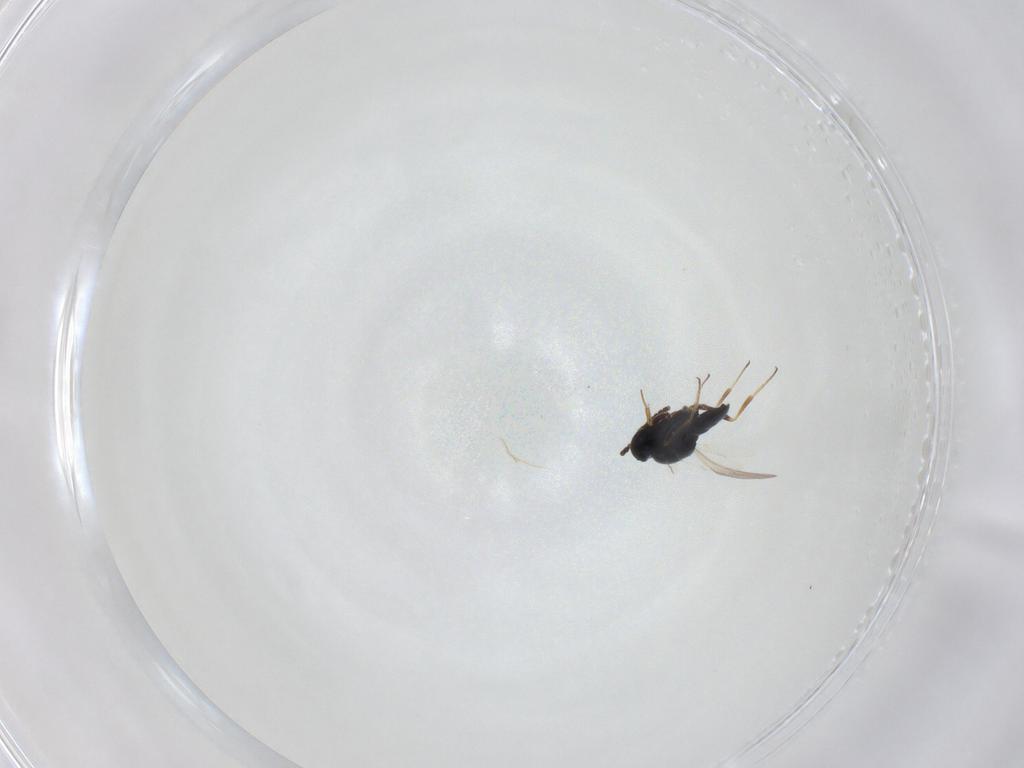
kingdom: Animalia
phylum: Arthropoda
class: Insecta
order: Hymenoptera
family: Scelionidae
